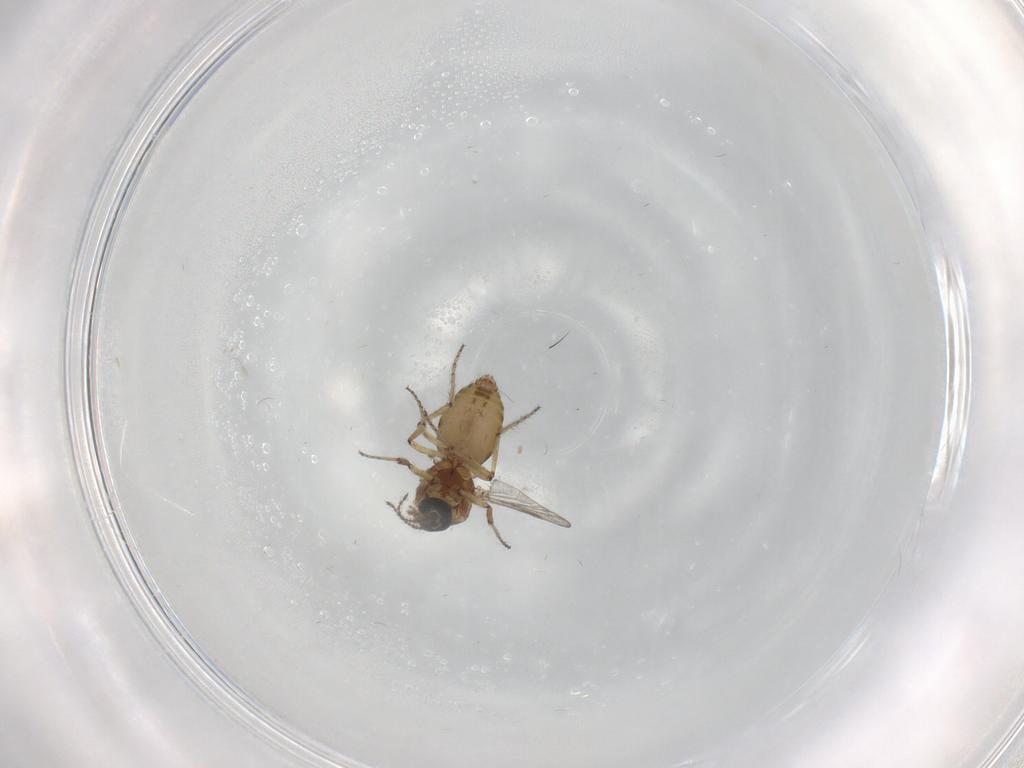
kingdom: Animalia
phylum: Arthropoda
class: Insecta
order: Diptera
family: Ceratopogonidae
